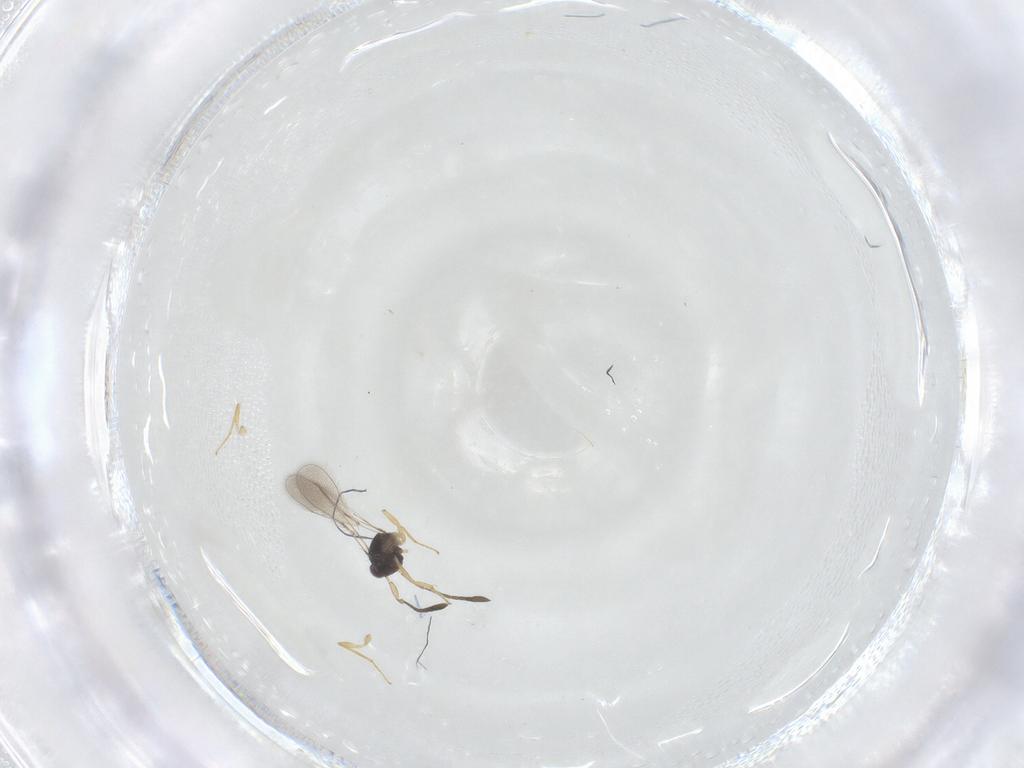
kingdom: Animalia
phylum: Arthropoda
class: Insecta
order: Hymenoptera
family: Mymaridae
